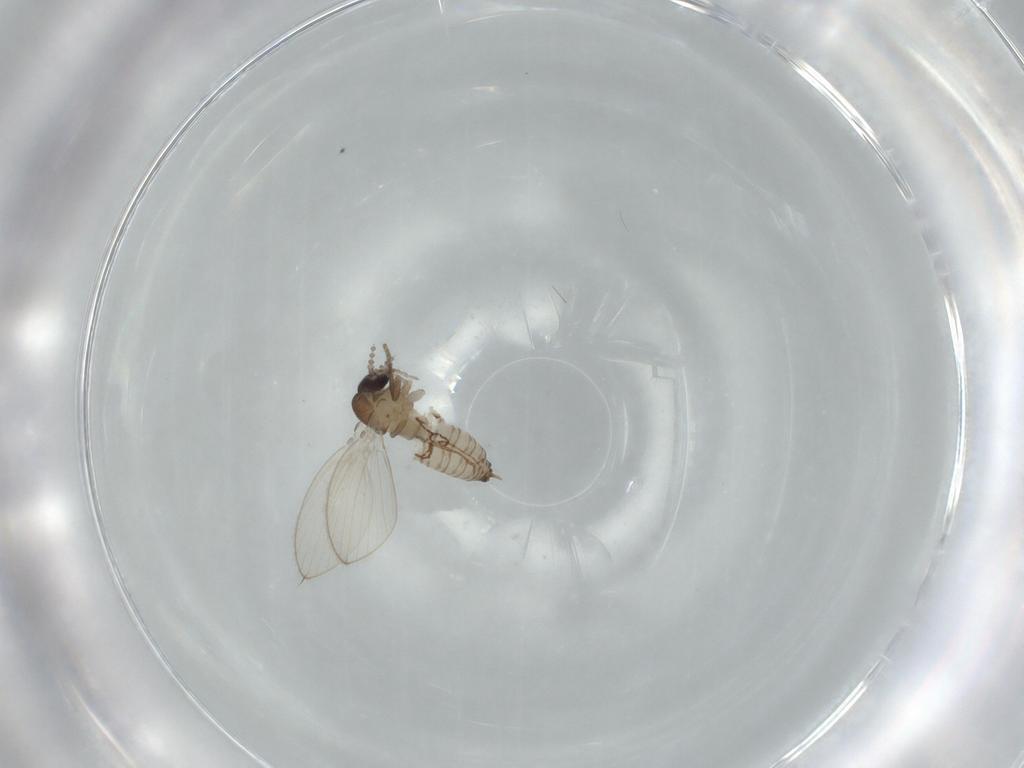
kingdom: Animalia
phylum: Arthropoda
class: Insecta
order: Diptera
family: Psychodidae
